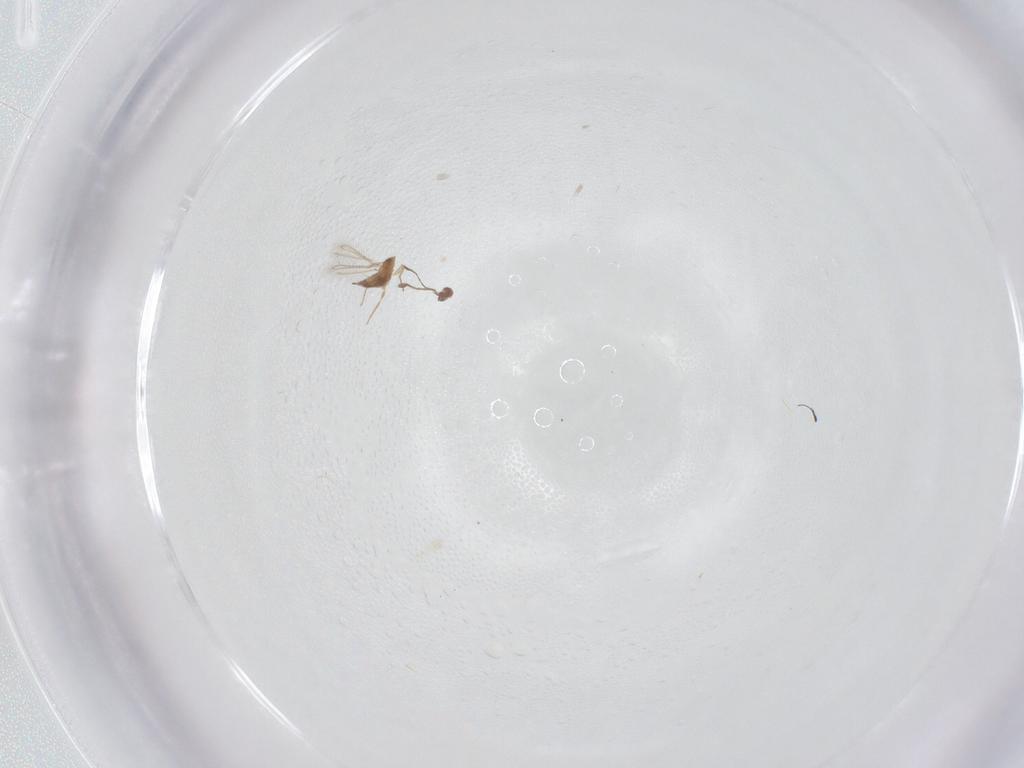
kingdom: Animalia
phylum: Arthropoda
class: Insecta
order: Hymenoptera
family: Mymaridae
